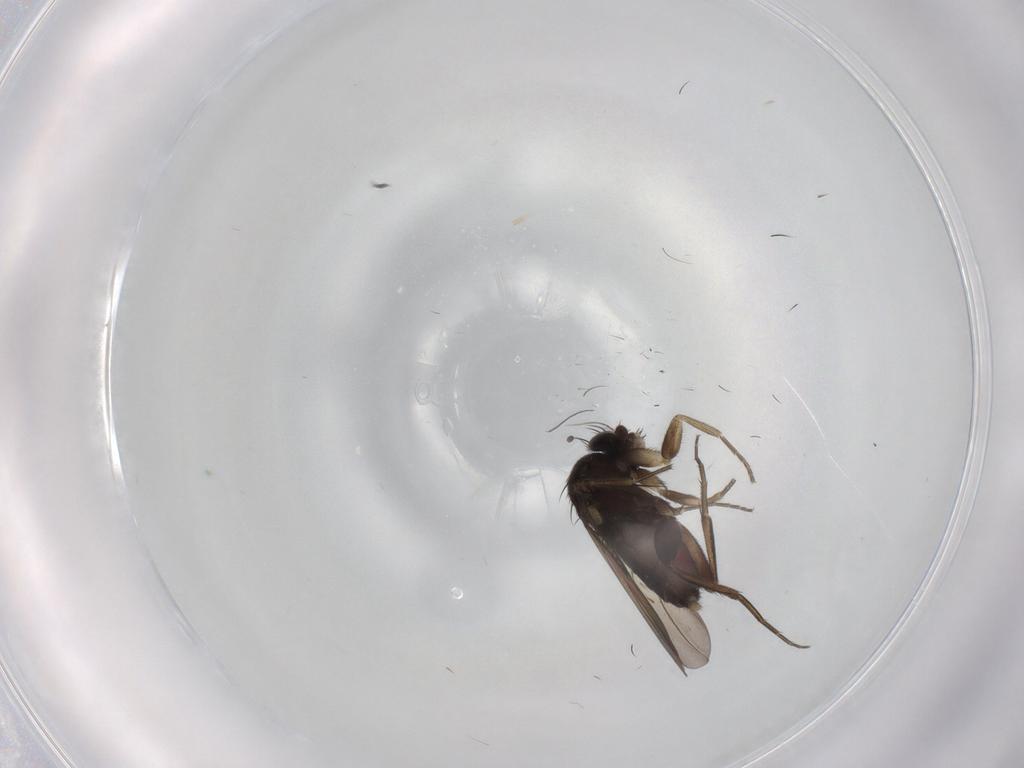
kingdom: Animalia
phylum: Arthropoda
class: Insecta
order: Diptera
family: Phoridae
